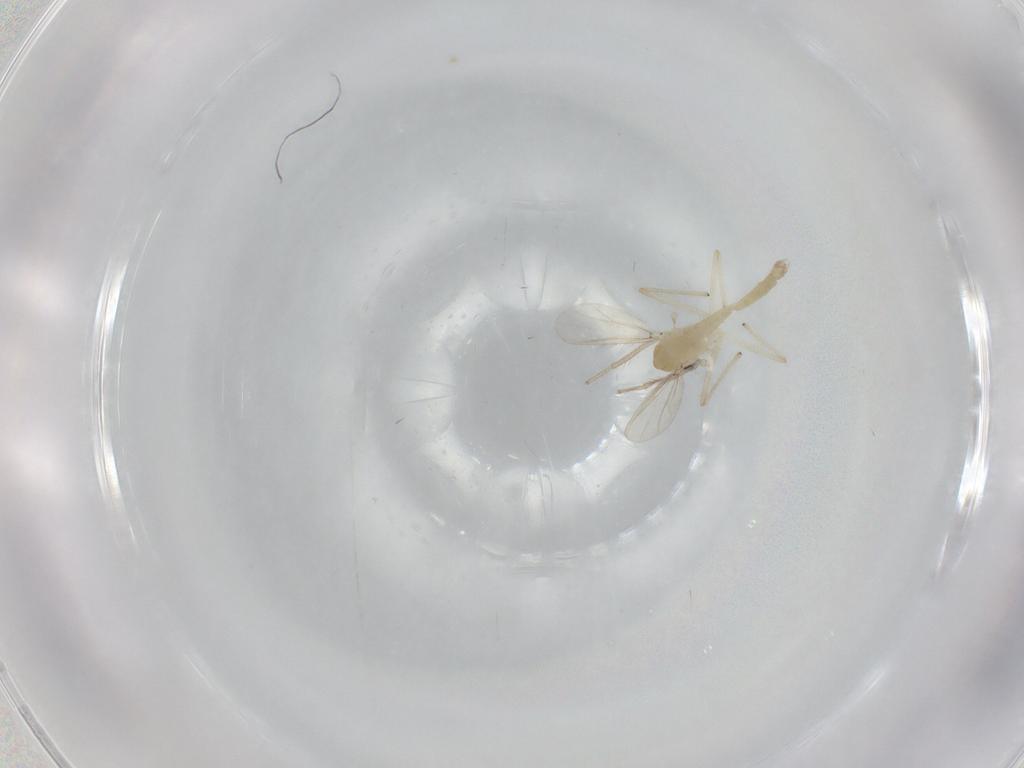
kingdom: Animalia
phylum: Arthropoda
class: Insecta
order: Diptera
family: Chironomidae
